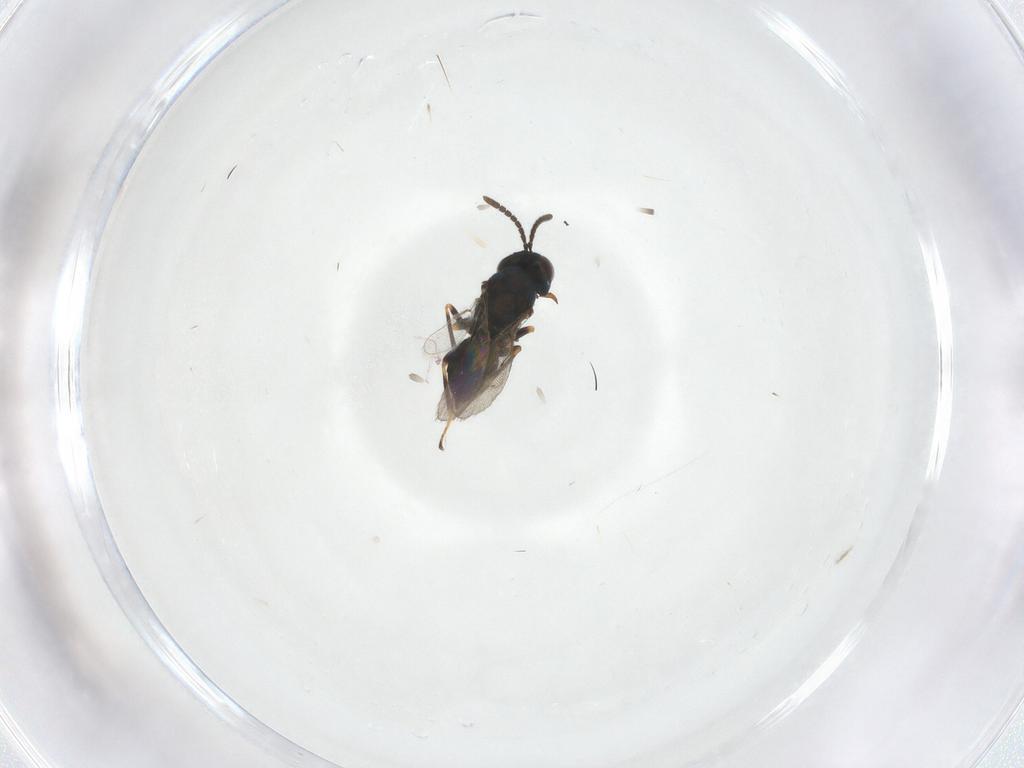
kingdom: Animalia
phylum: Arthropoda
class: Insecta
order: Hymenoptera
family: Pteromalidae
